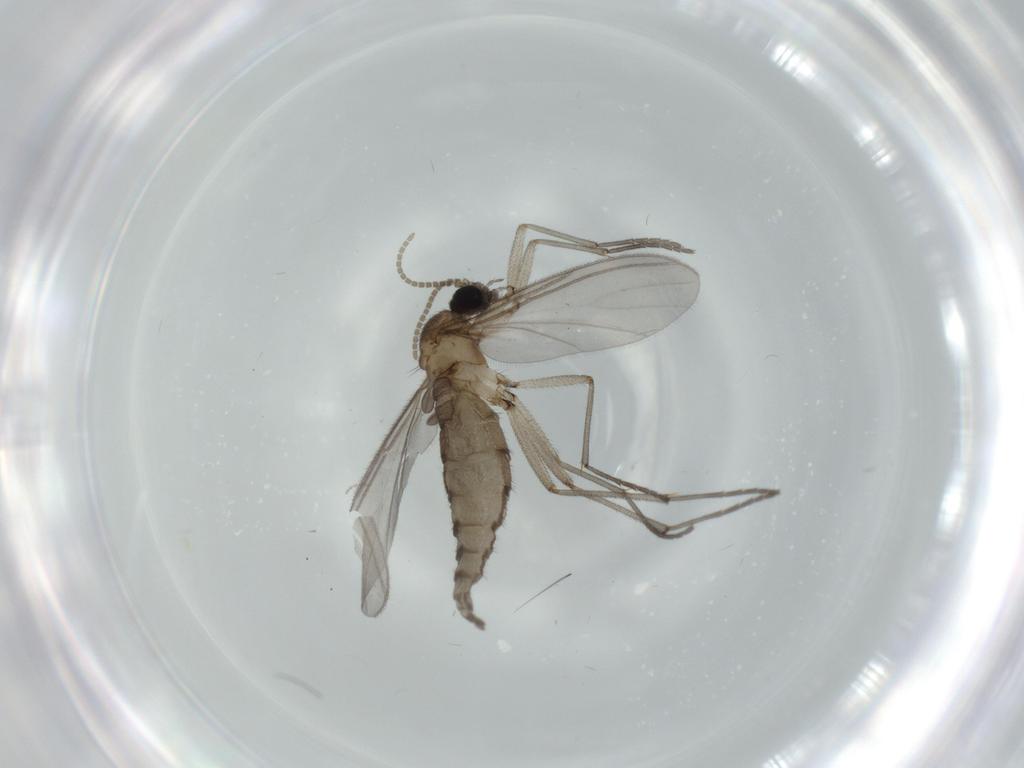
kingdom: Animalia
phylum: Arthropoda
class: Insecta
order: Diptera
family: Sciaridae
